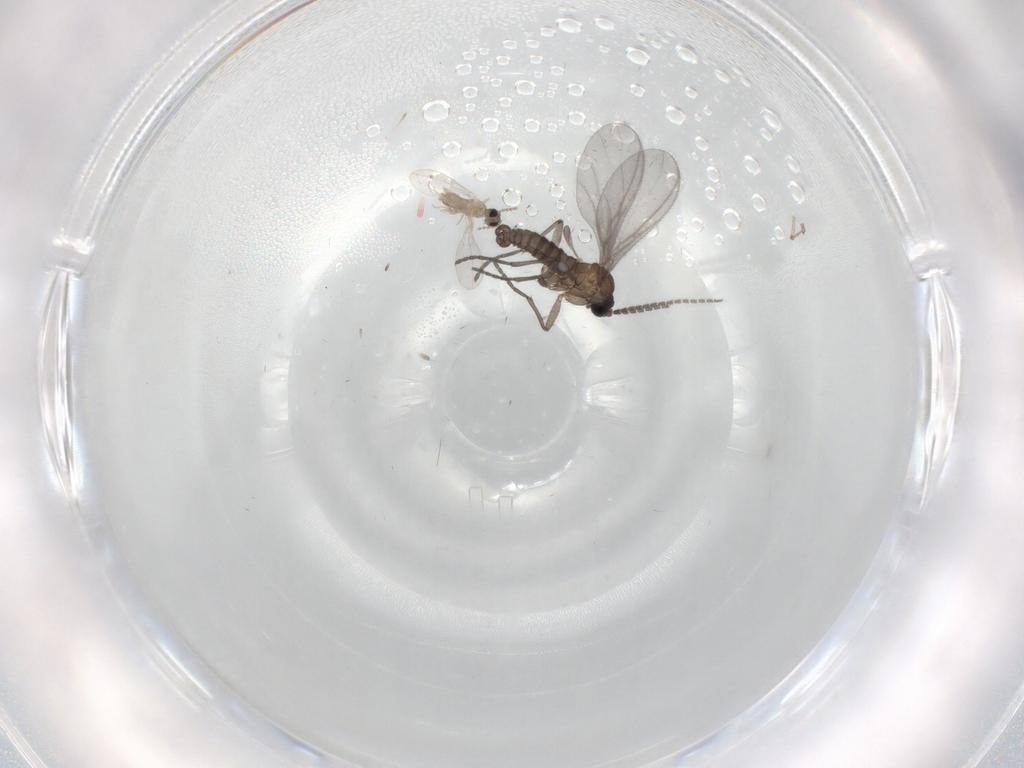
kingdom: Animalia
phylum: Arthropoda
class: Insecta
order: Diptera
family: Cecidomyiidae
